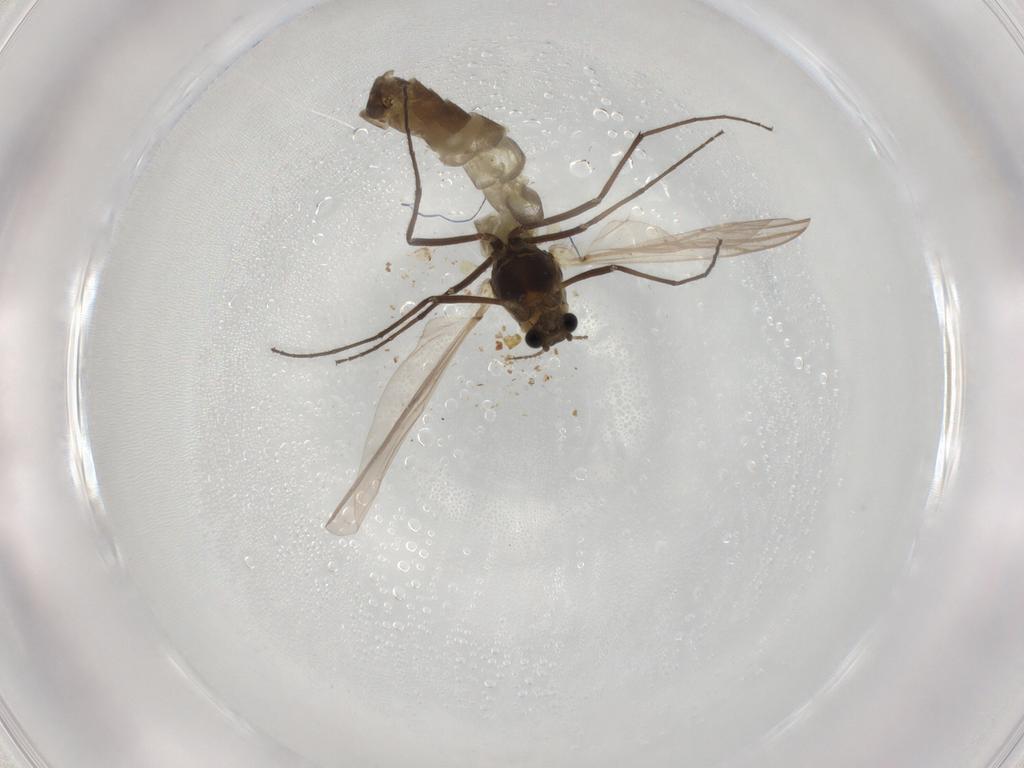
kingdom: Animalia
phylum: Arthropoda
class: Insecta
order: Diptera
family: Chironomidae
